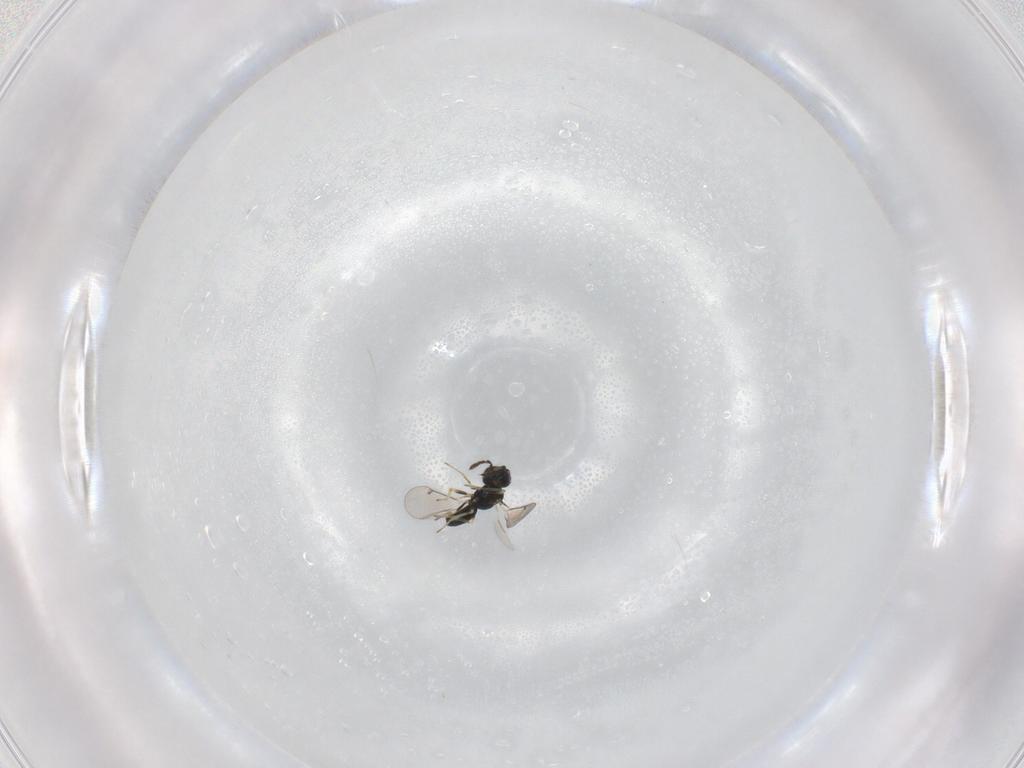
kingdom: Animalia
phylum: Arthropoda
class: Insecta
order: Hymenoptera
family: Eulophidae
